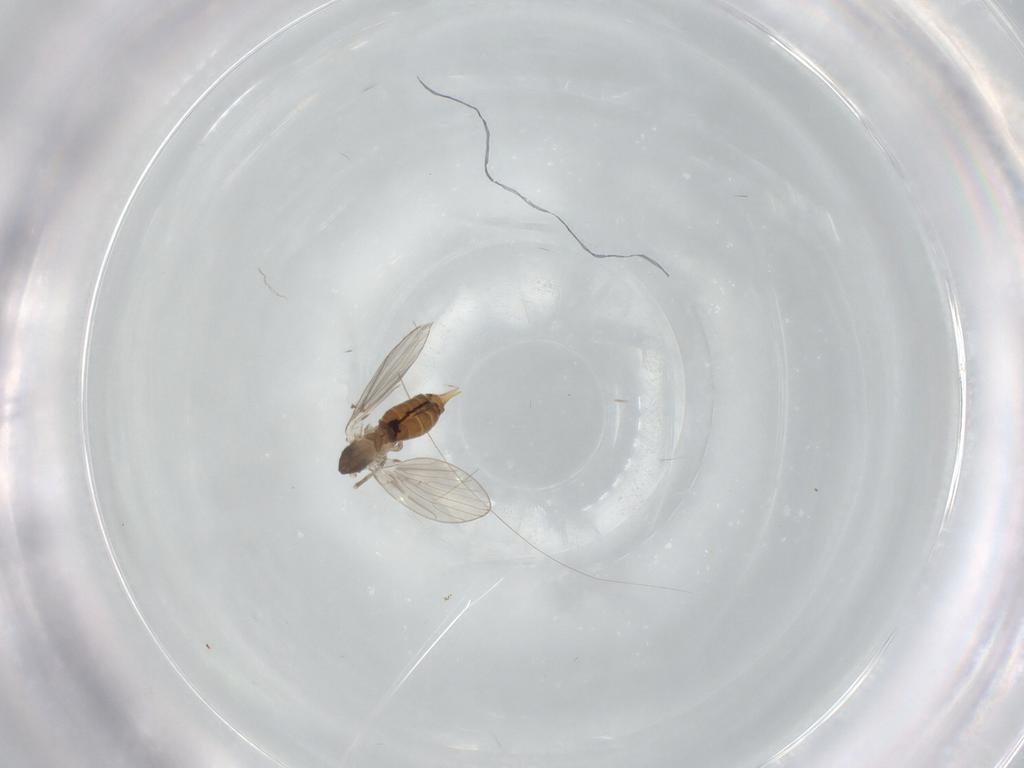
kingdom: Animalia
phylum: Arthropoda
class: Insecta
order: Diptera
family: Psychodidae
